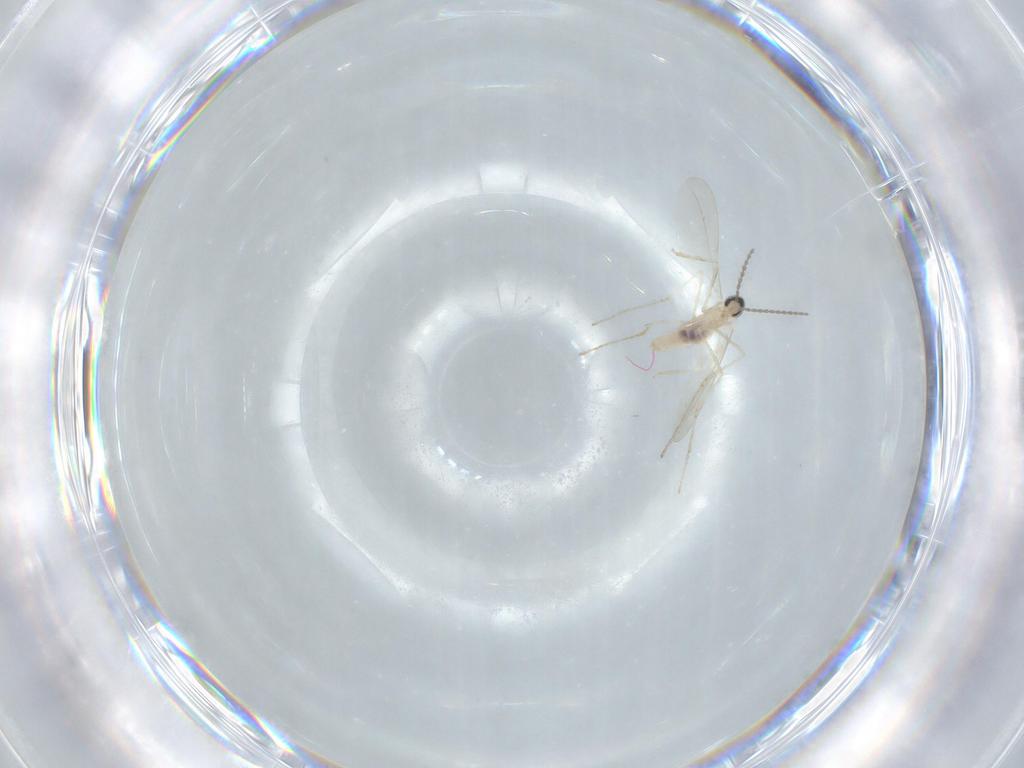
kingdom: Animalia
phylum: Arthropoda
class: Insecta
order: Diptera
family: Cecidomyiidae
